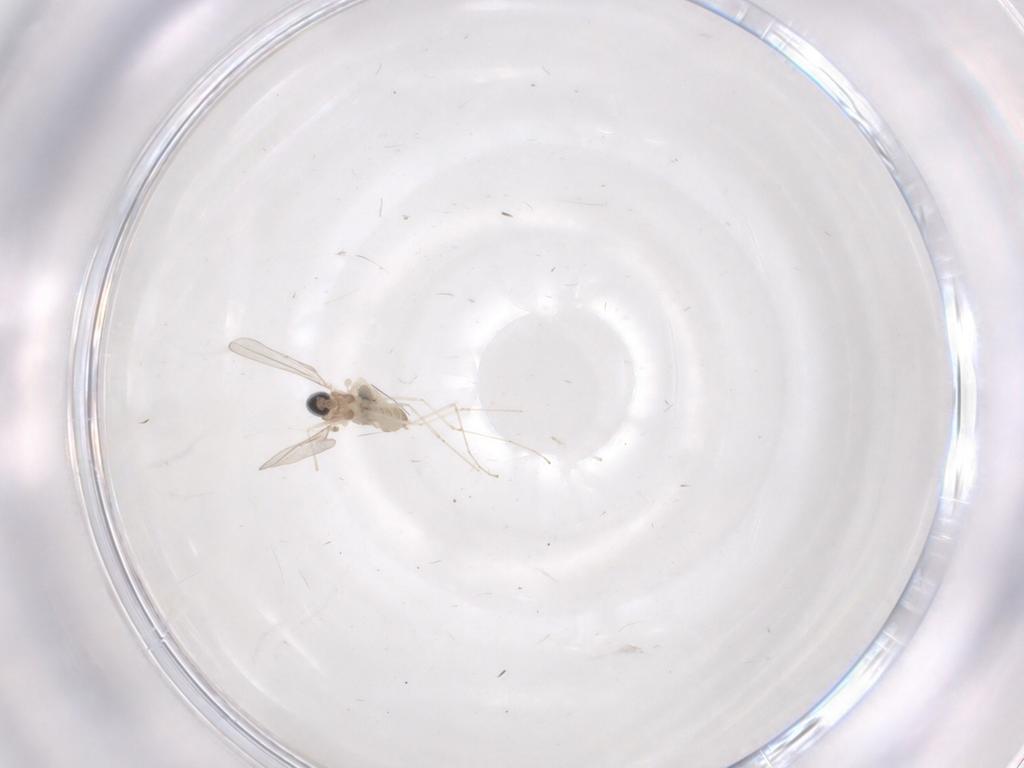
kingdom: Animalia
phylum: Arthropoda
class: Insecta
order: Diptera
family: Cecidomyiidae
